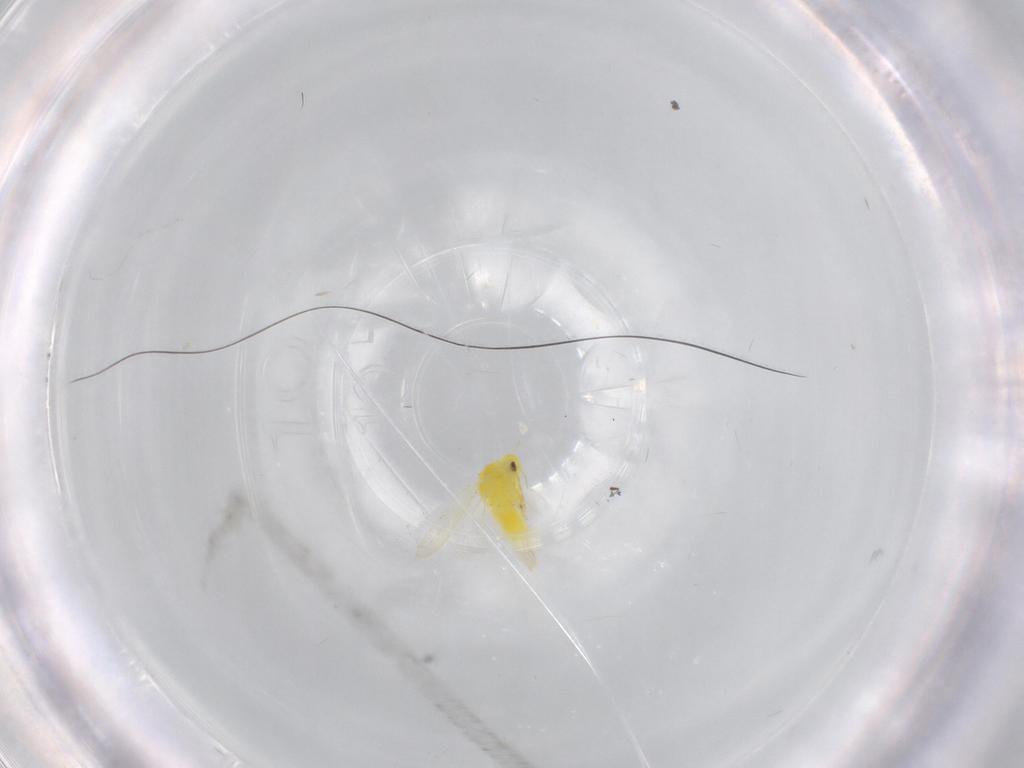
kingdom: Animalia
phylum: Arthropoda
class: Insecta
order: Hemiptera
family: Aleyrodidae
